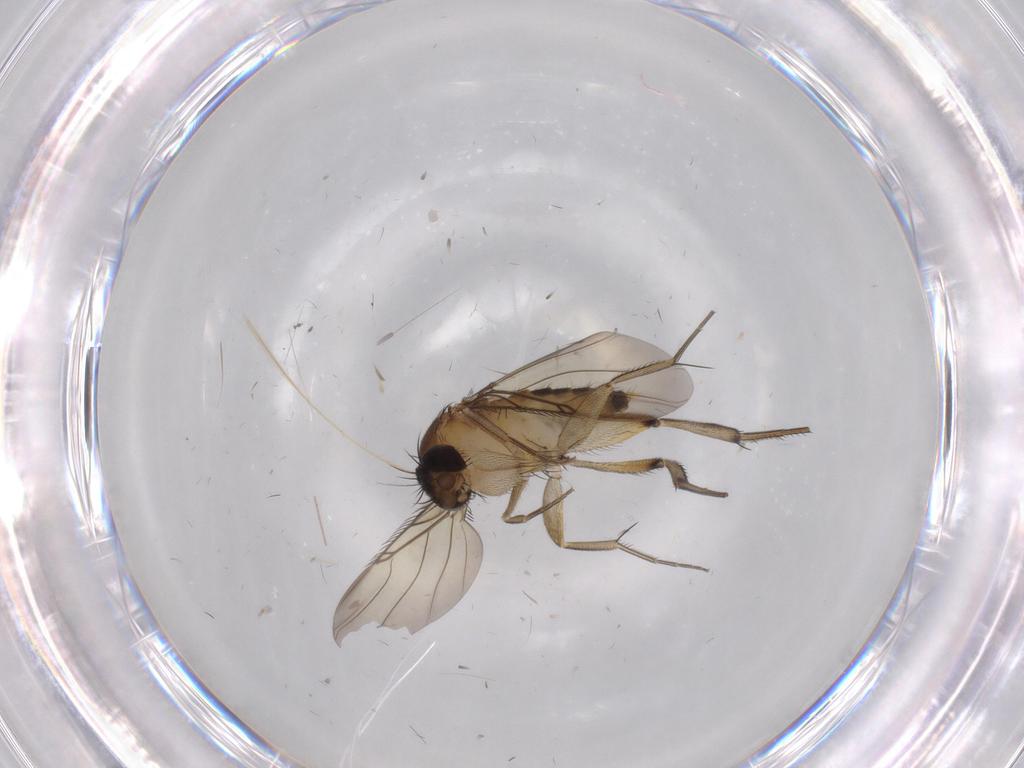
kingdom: Animalia
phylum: Arthropoda
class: Insecta
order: Diptera
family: Phoridae
